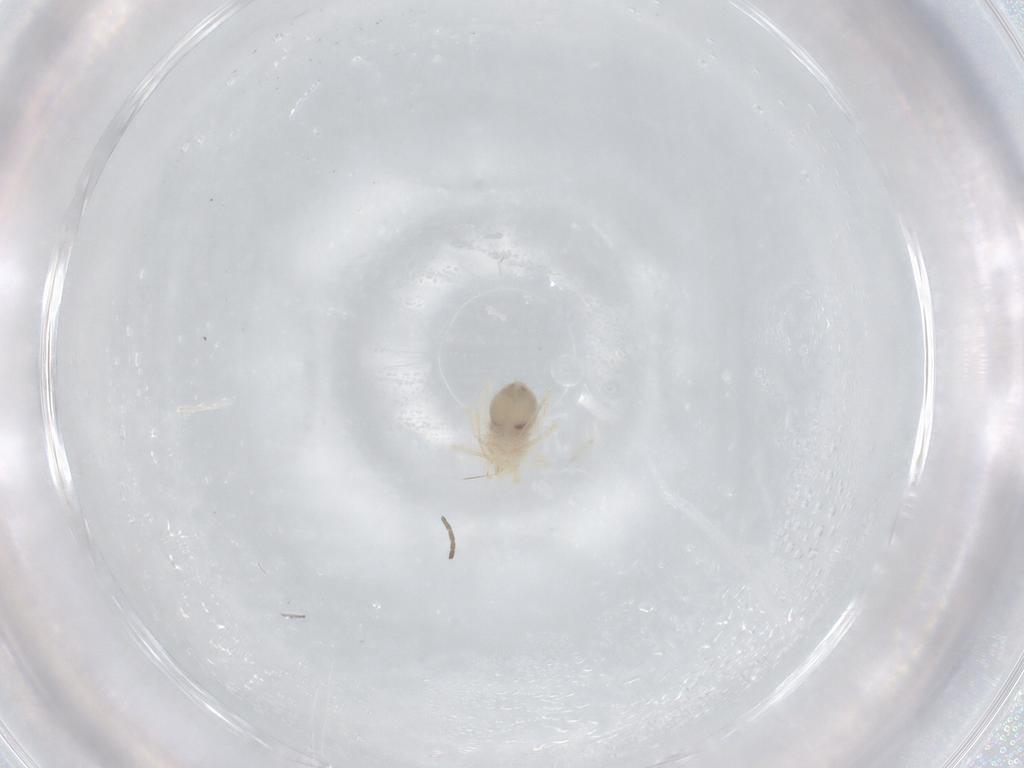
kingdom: Animalia
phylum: Arthropoda
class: Arachnida
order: Trombidiformes
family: Anystidae
